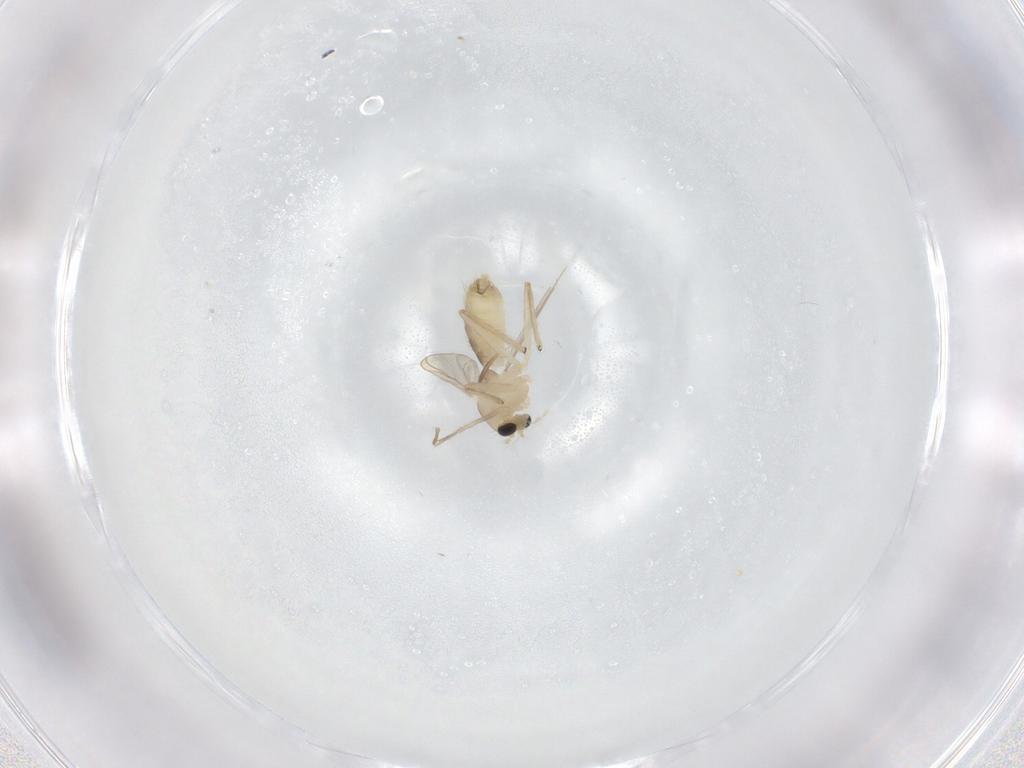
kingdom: Animalia
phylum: Arthropoda
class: Insecta
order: Diptera
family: Chironomidae
